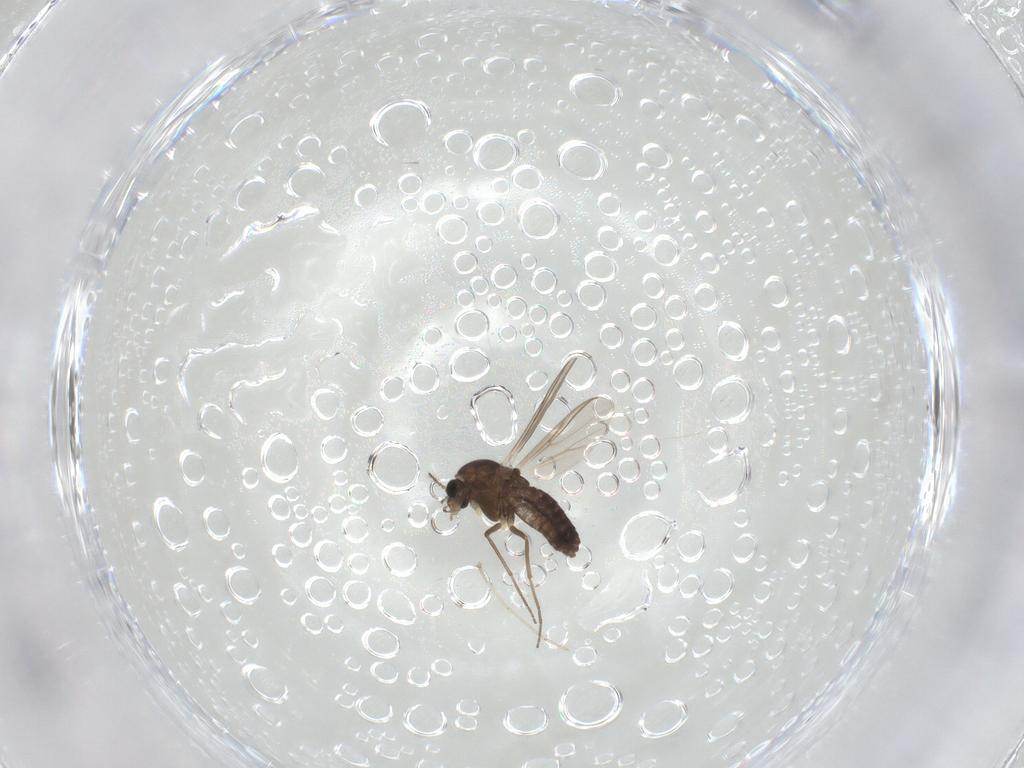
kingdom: Animalia
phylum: Arthropoda
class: Insecta
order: Diptera
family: Chironomidae
